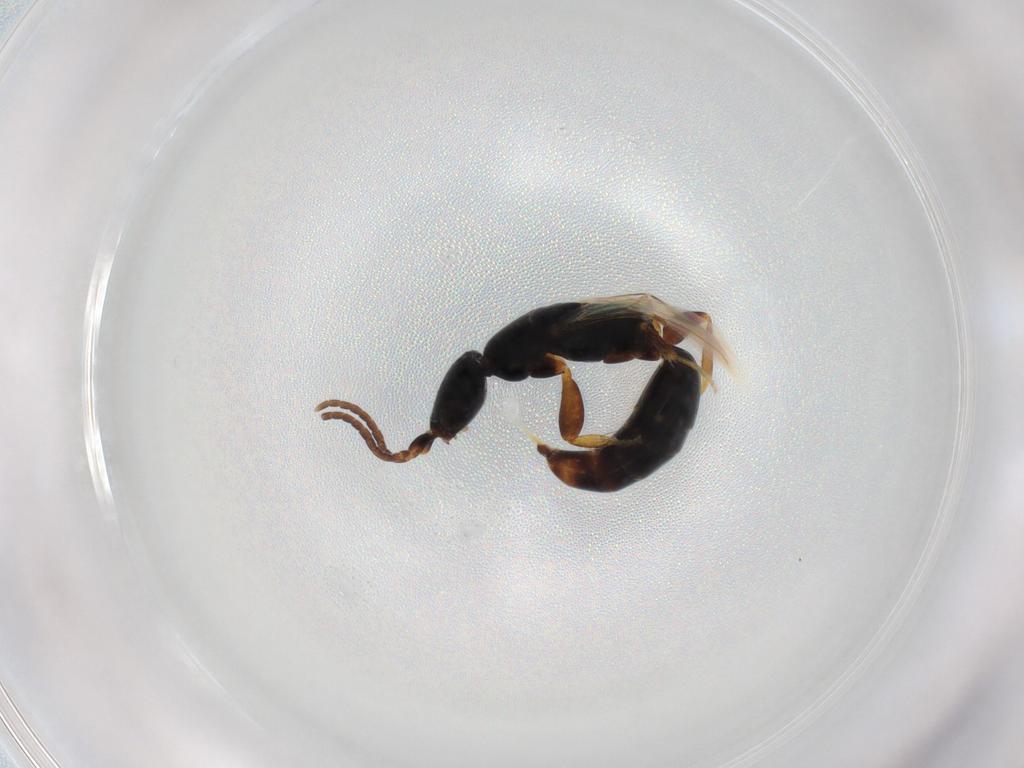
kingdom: Animalia
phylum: Arthropoda
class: Insecta
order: Hymenoptera
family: Bethylidae
